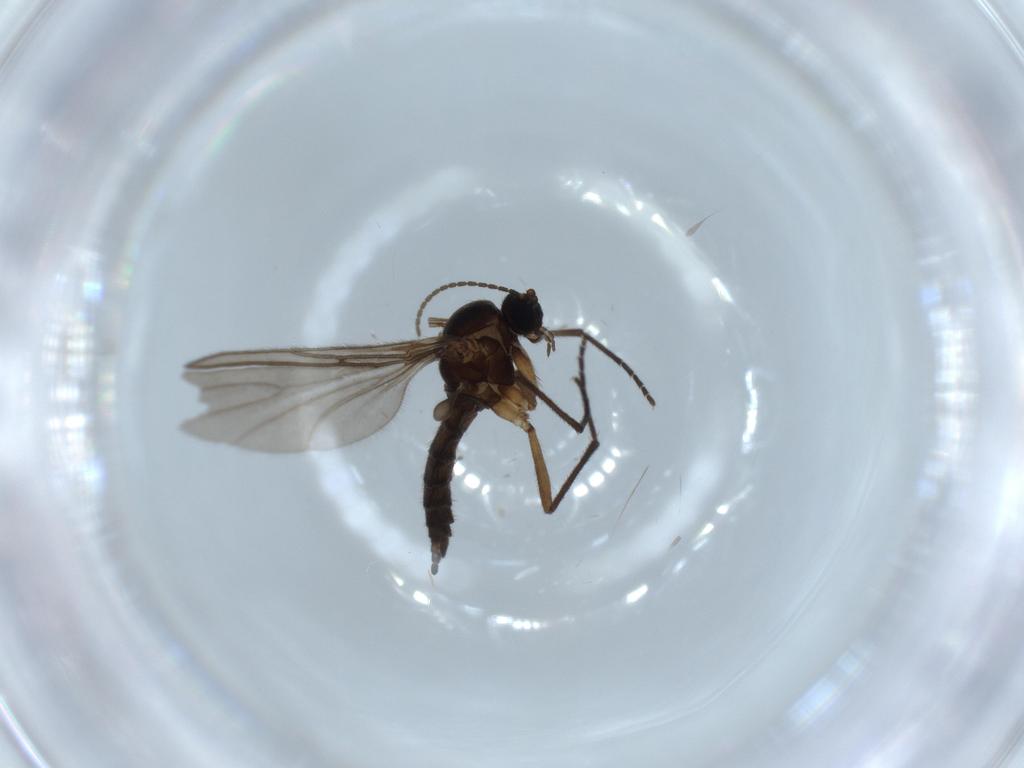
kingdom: Animalia
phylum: Arthropoda
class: Insecta
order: Diptera
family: Sciaridae
